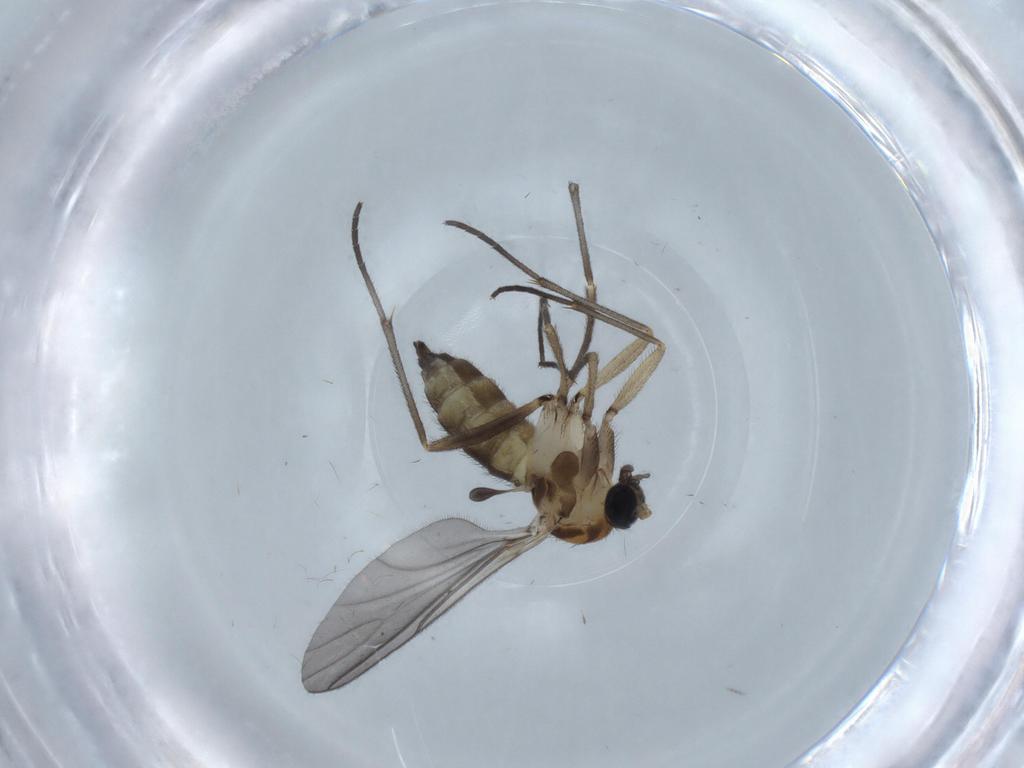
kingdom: Animalia
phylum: Arthropoda
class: Insecta
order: Diptera
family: Sciaridae
